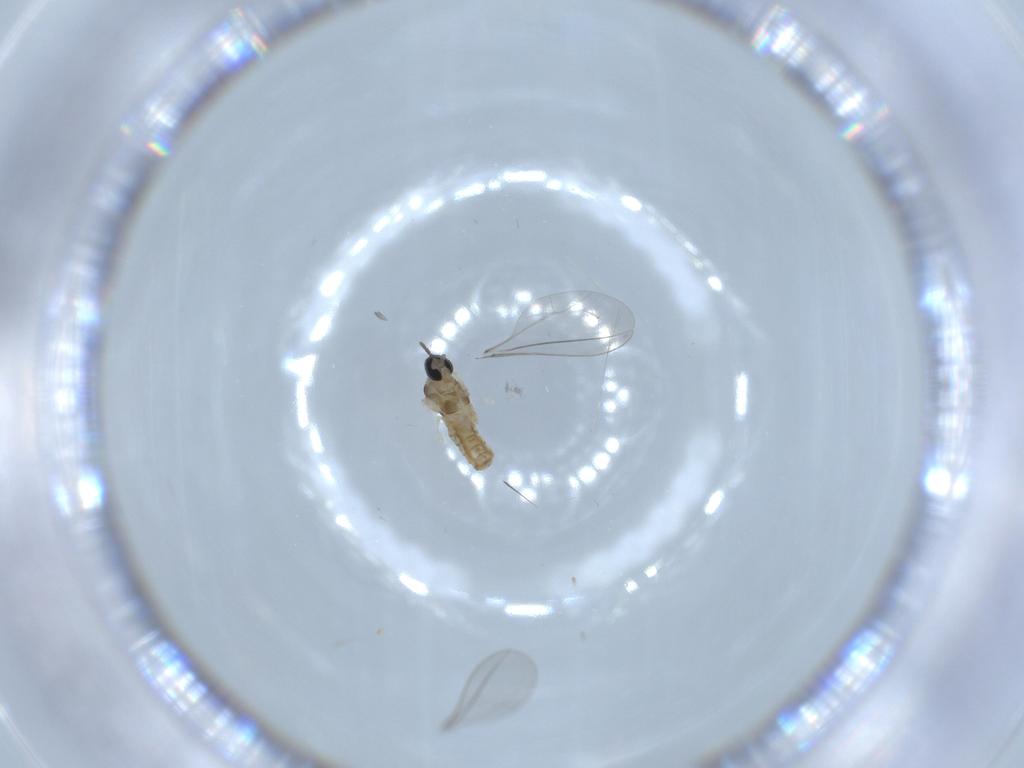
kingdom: Animalia
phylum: Arthropoda
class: Insecta
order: Diptera
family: Cecidomyiidae
